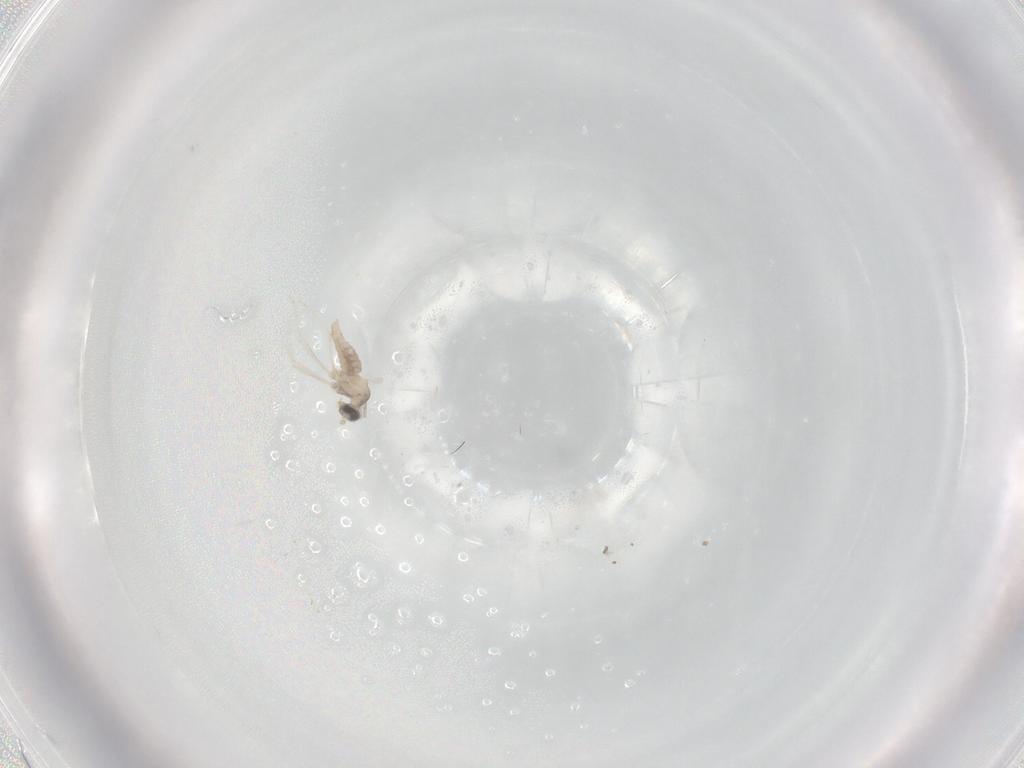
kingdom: Animalia
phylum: Arthropoda
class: Insecta
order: Diptera
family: Cecidomyiidae
